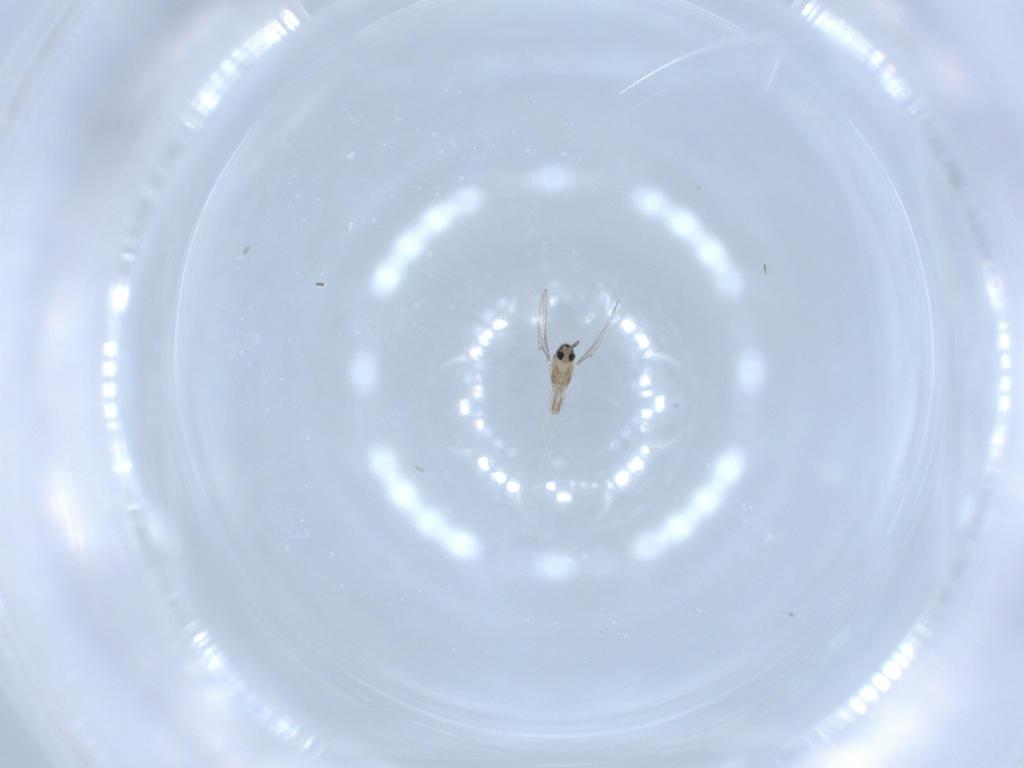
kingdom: Animalia
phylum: Arthropoda
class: Insecta
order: Diptera
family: Cecidomyiidae
